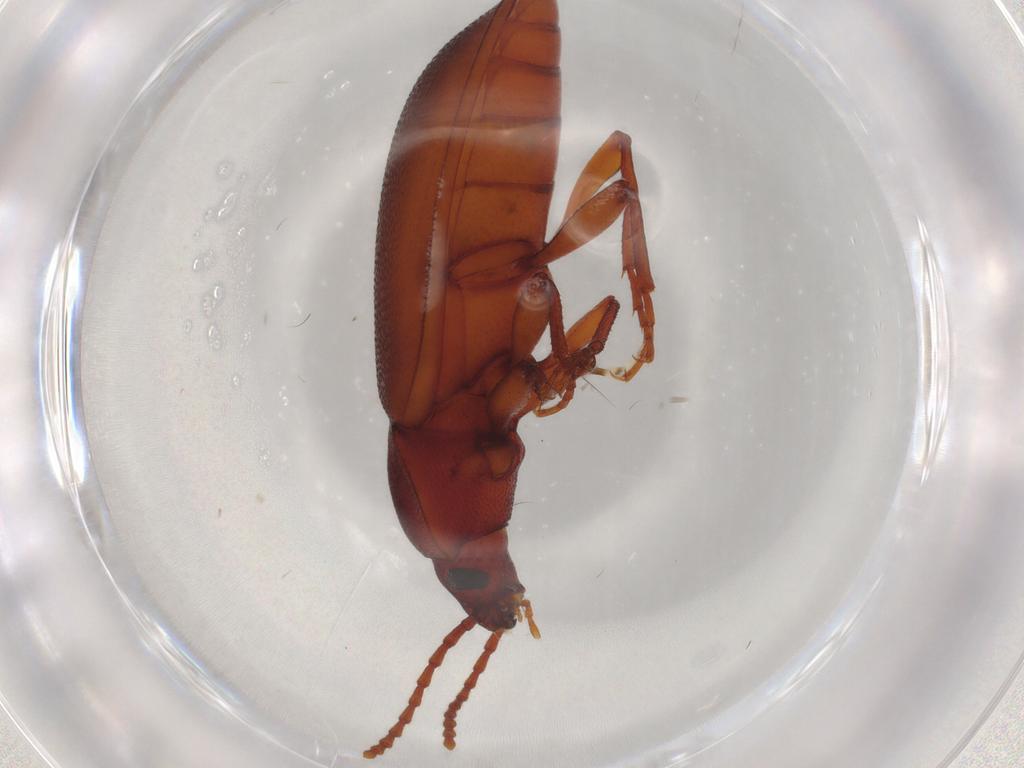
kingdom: Animalia
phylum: Arthropoda
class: Insecta
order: Coleoptera
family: Tenebrionidae
